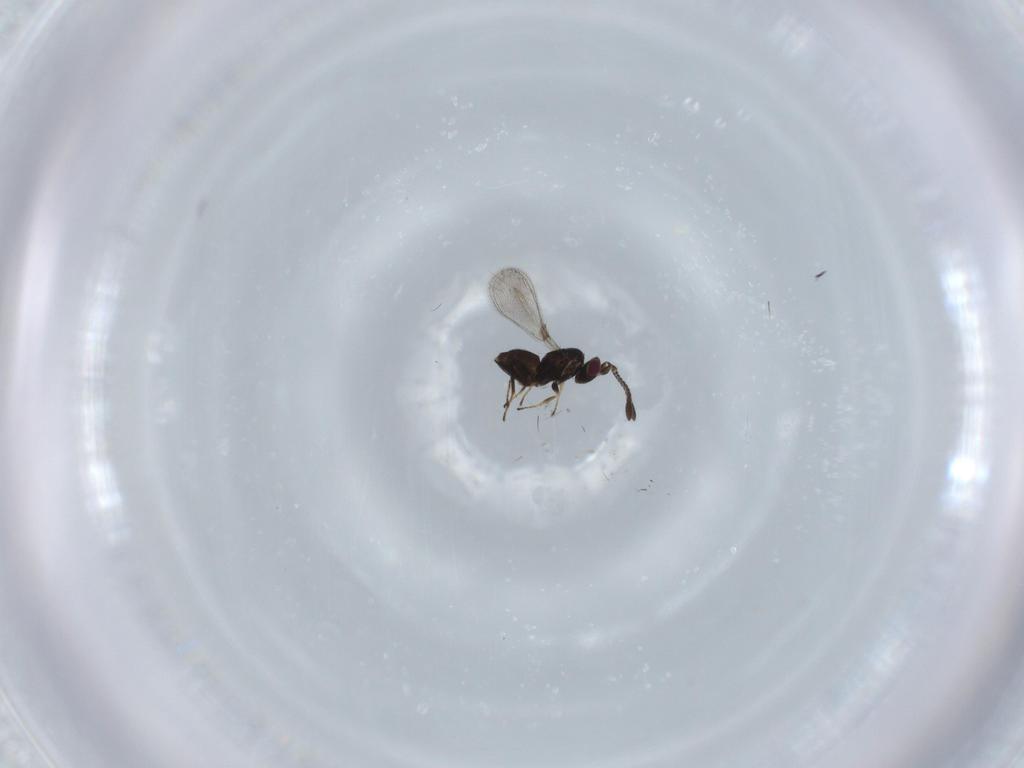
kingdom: Animalia
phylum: Arthropoda
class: Insecta
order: Hymenoptera
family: Mymaridae
